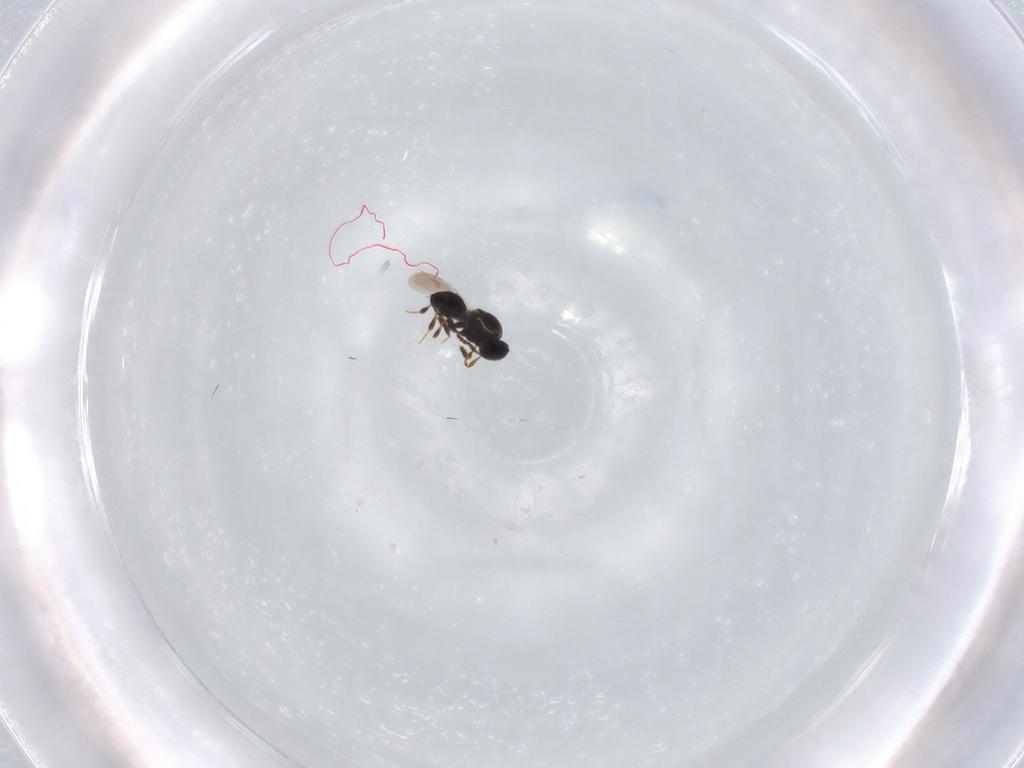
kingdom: Animalia
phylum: Arthropoda
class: Insecta
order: Hymenoptera
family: Platygastridae
